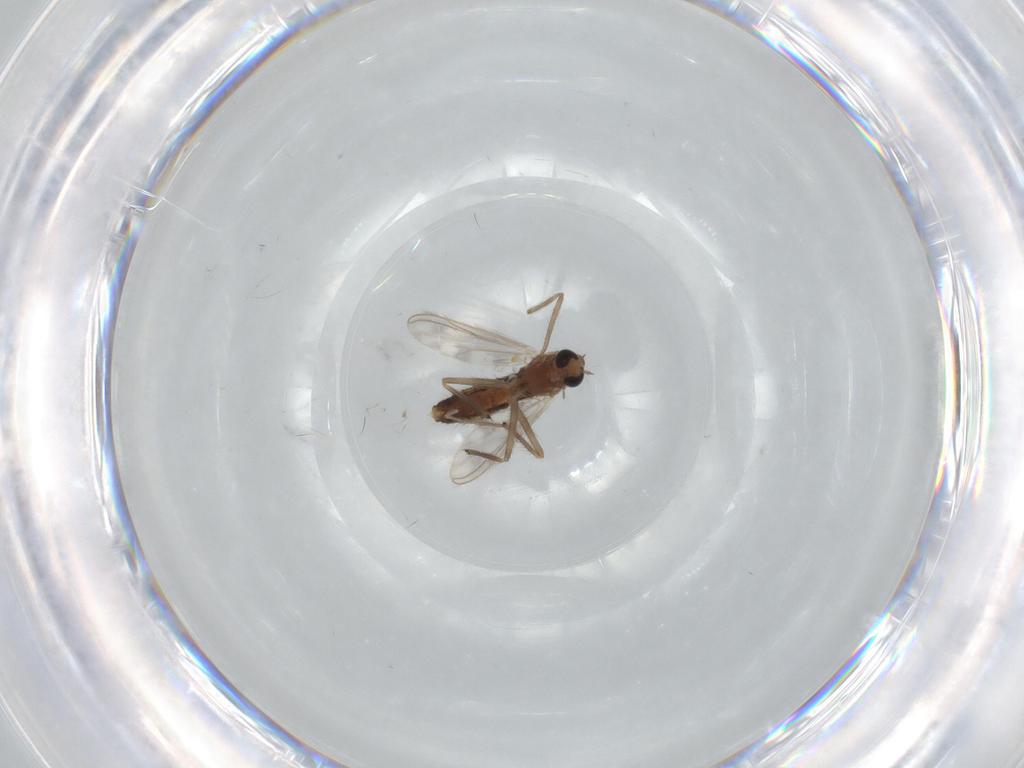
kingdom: Animalia
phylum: Arthropoda
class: Insecta
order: Diptera
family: Chironomidae
